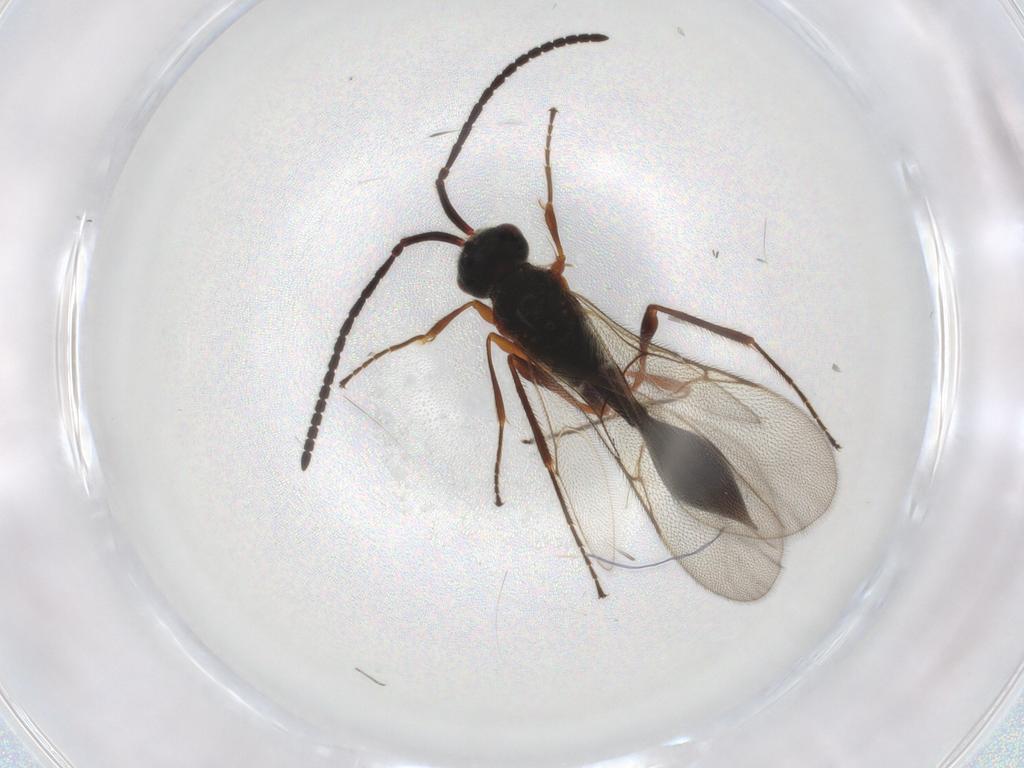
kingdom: Animalia
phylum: Arthropoda
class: Insecta
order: Hymenoptera
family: Diapriidae
